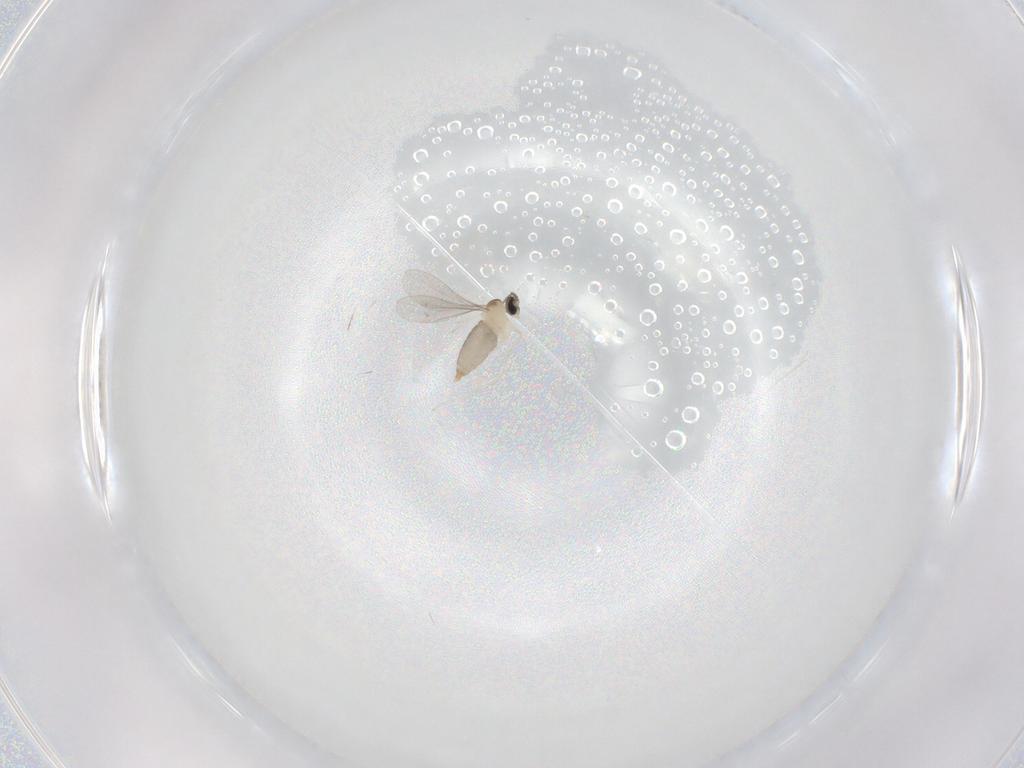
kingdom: Animalia
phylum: Arthropoda
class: Insecta
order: Diptera
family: Cecidomyiidae
